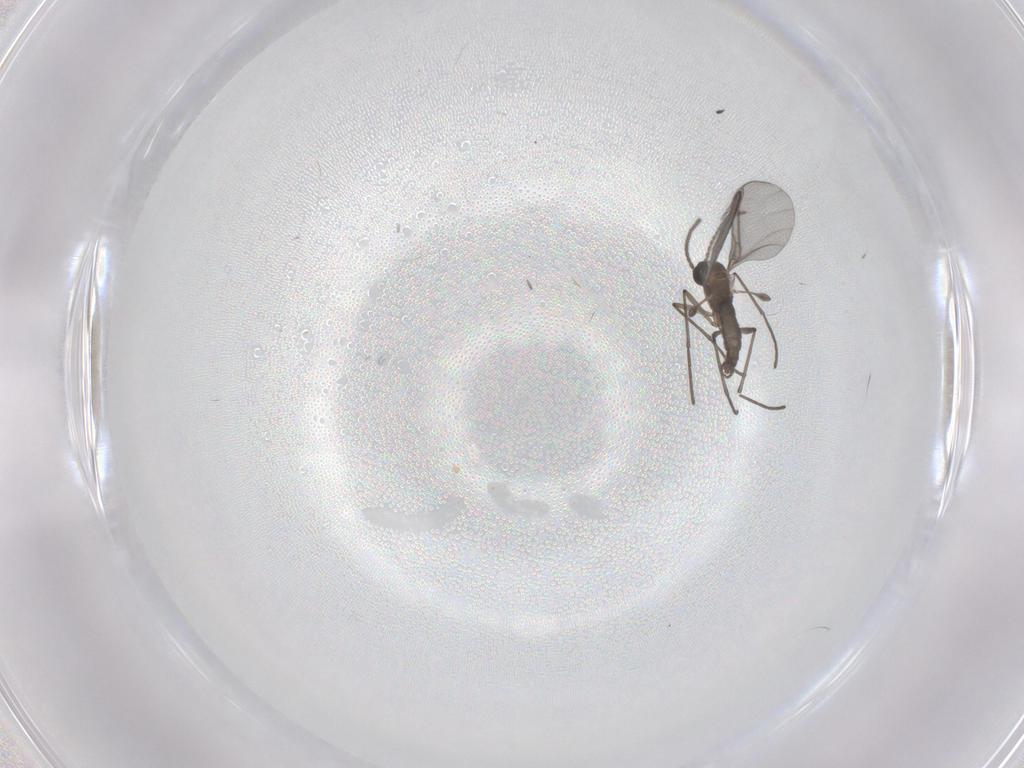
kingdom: Animalia
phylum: Arthropoda
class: Insecta
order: Diptera
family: Sciaridae
